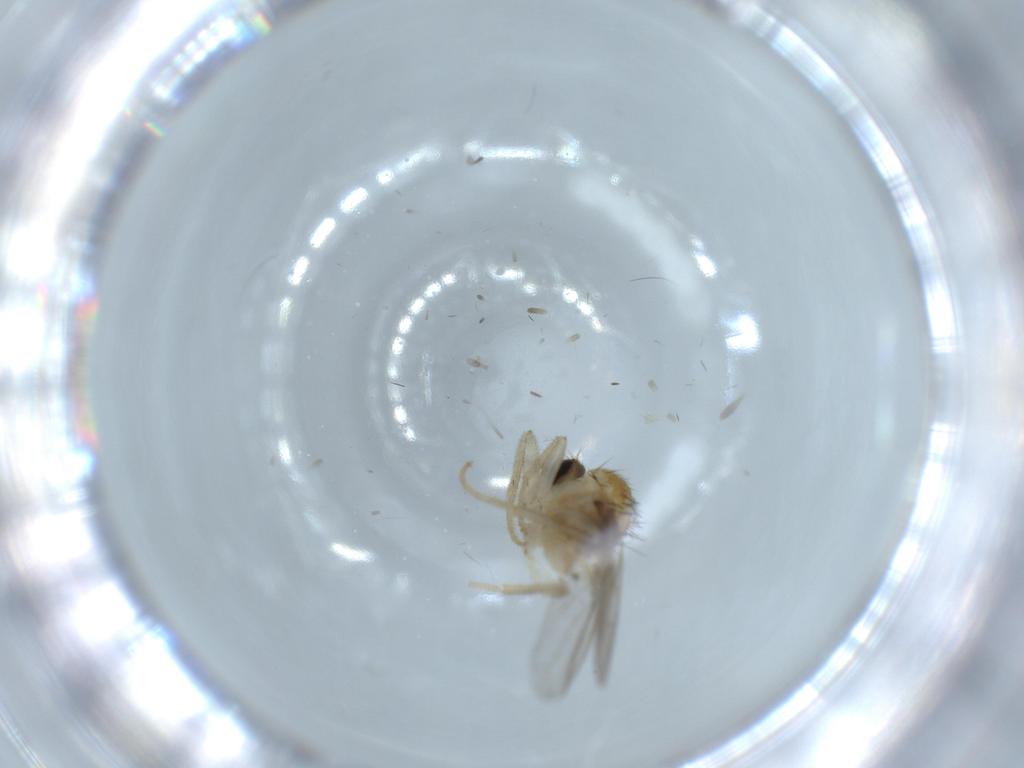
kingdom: Animalia
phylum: Arthropoda
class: Insecta
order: Diptera
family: Hybotidae
